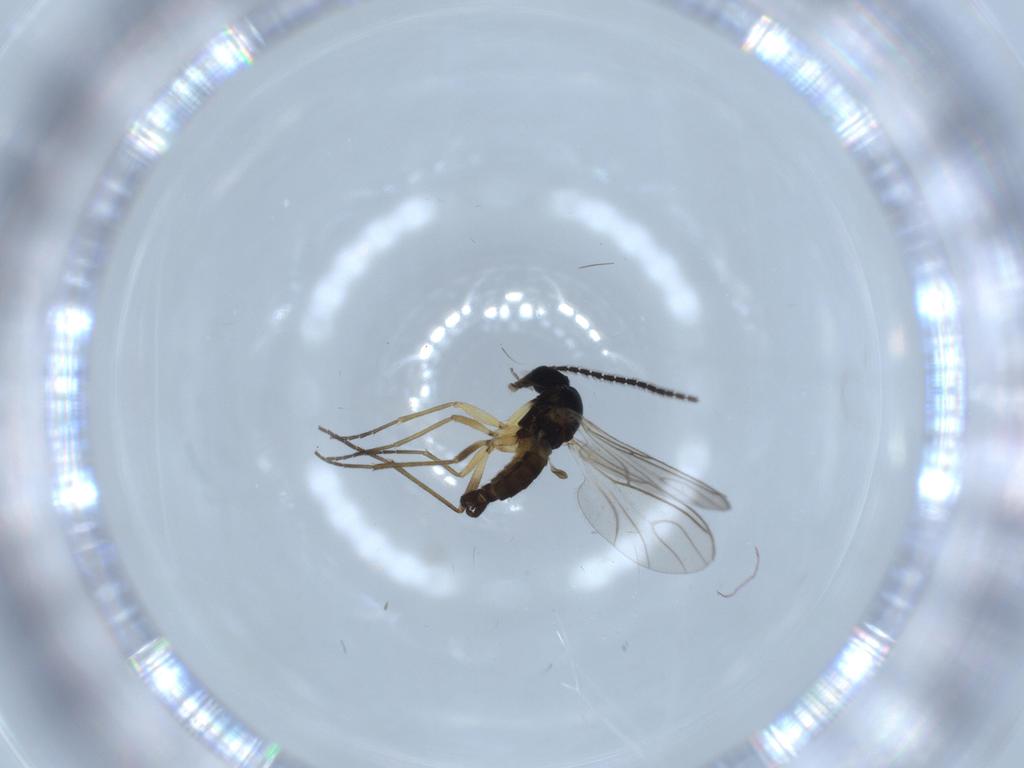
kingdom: Animalia
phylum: Arthropoda
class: Insecta
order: Diptera
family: Sciaridae
